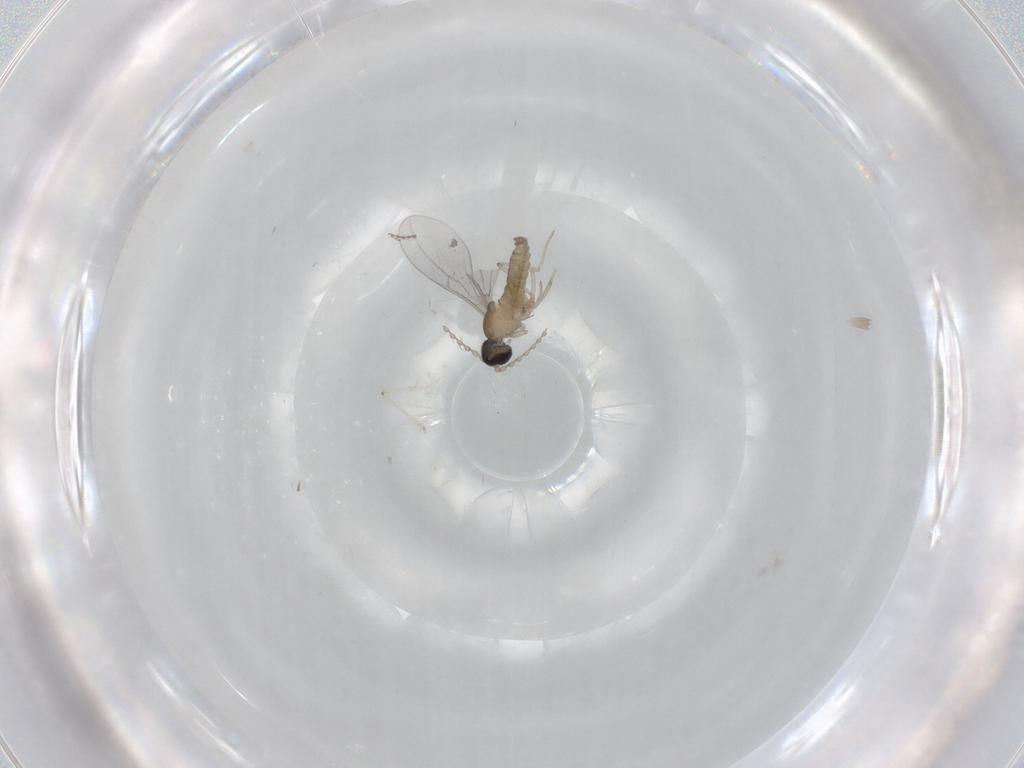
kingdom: Animalia
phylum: Arthropoda
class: Insecta
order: Diptera
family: Cecidomyiidae
